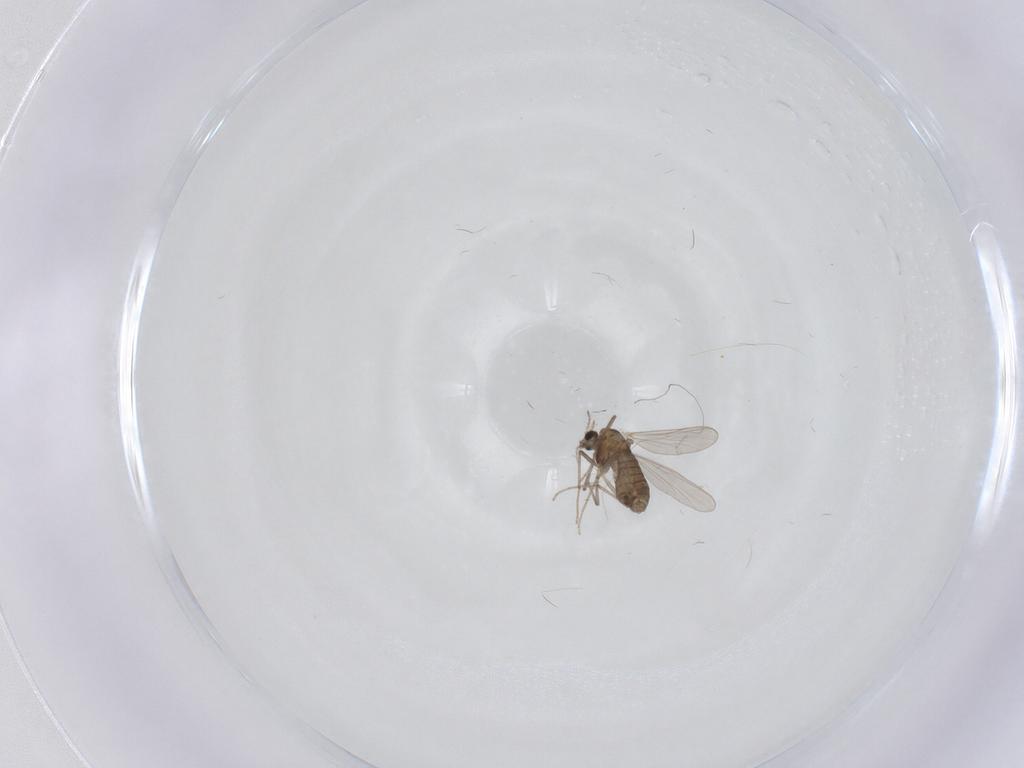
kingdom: Animalia
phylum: Arthropoda
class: Insecta
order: Diptera
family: Chironomidae
